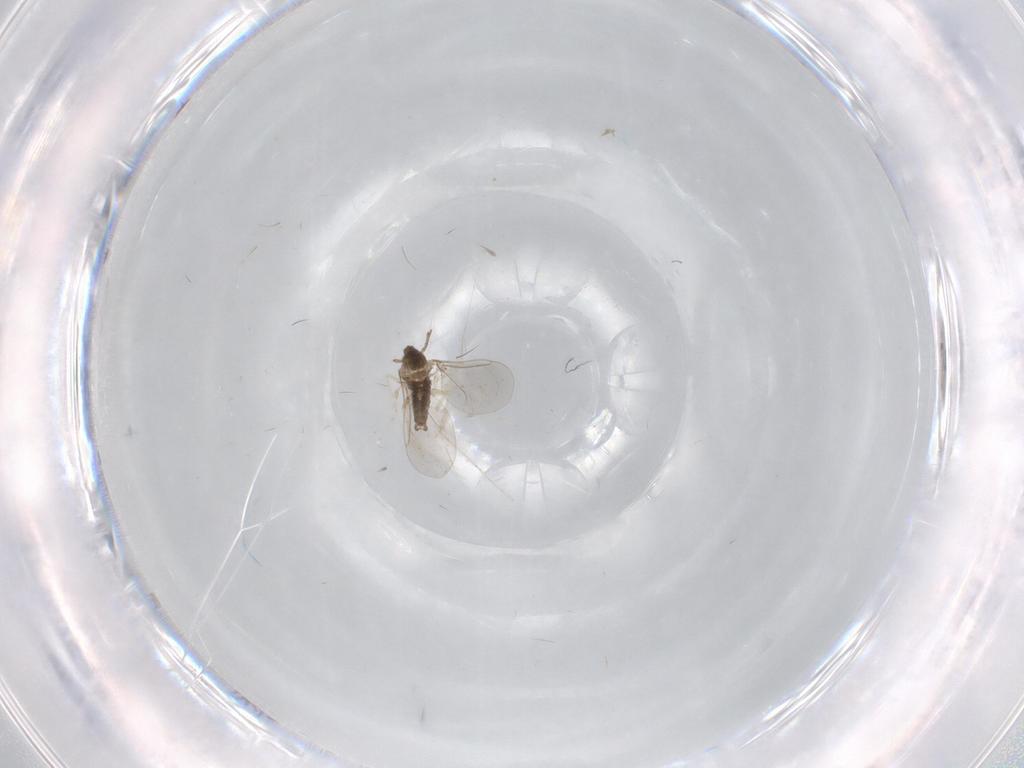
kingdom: Animalia
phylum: Arthropoda
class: Insecta
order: Diptera
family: Cecidomyiidae
